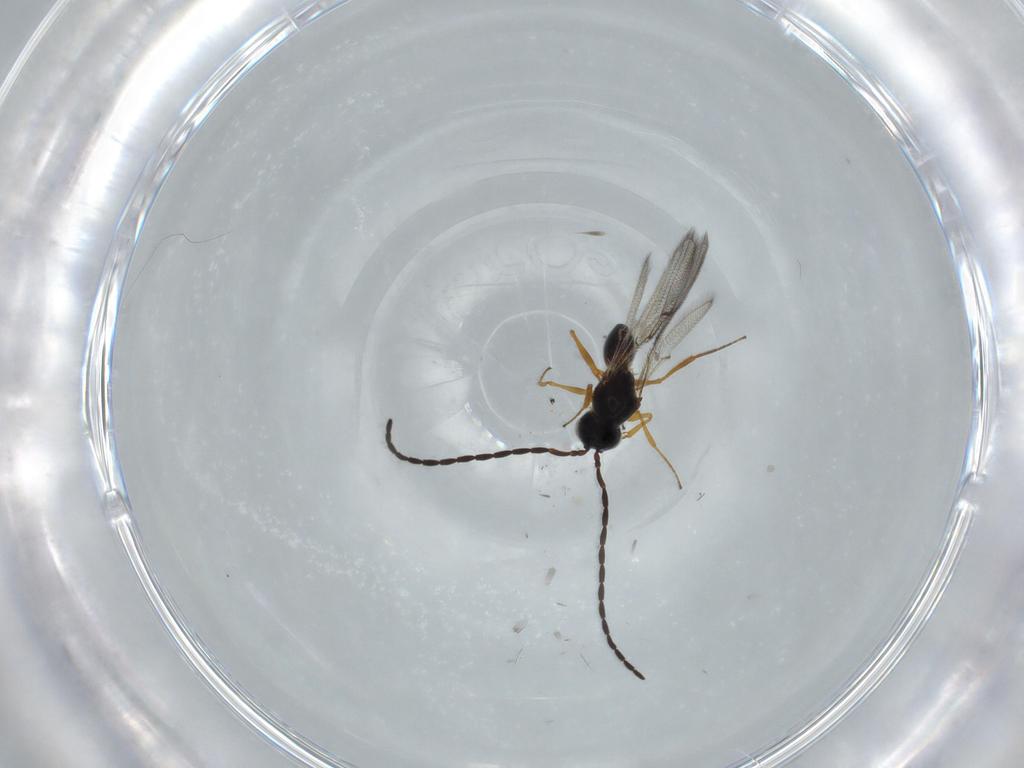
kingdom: Animalia
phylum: Arthropoda
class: Insecta
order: Hymenoptera
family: Figitidae
